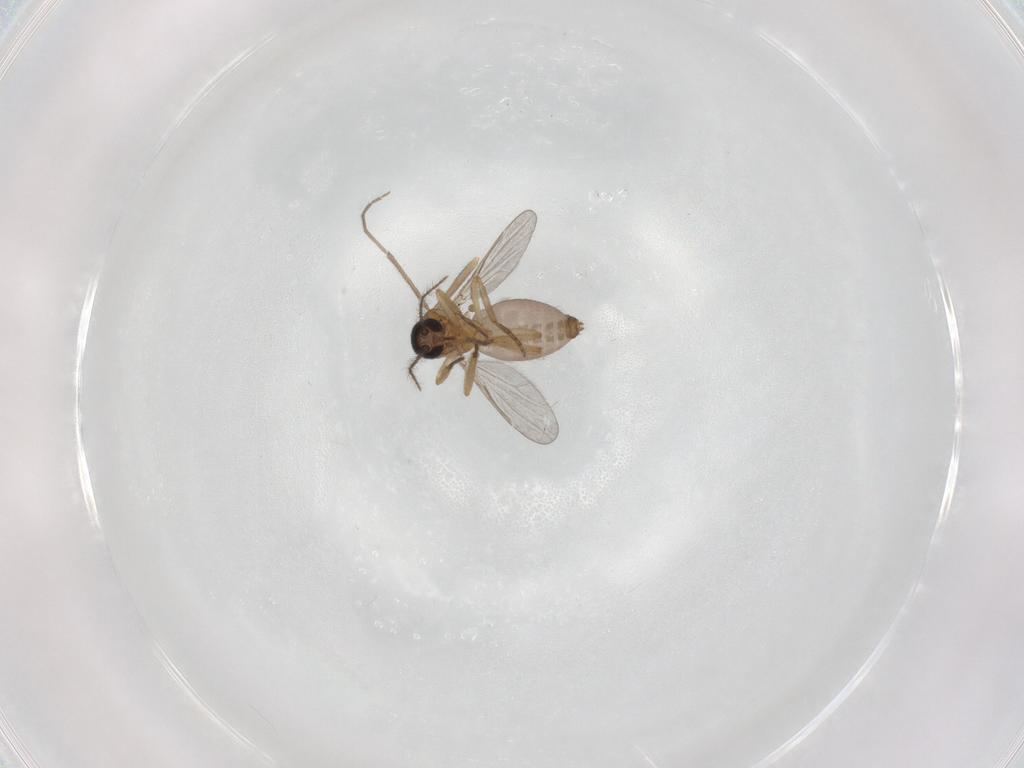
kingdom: Animalia
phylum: Arthropoda
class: Insecta
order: Diptera
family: Ceratopogonidae
